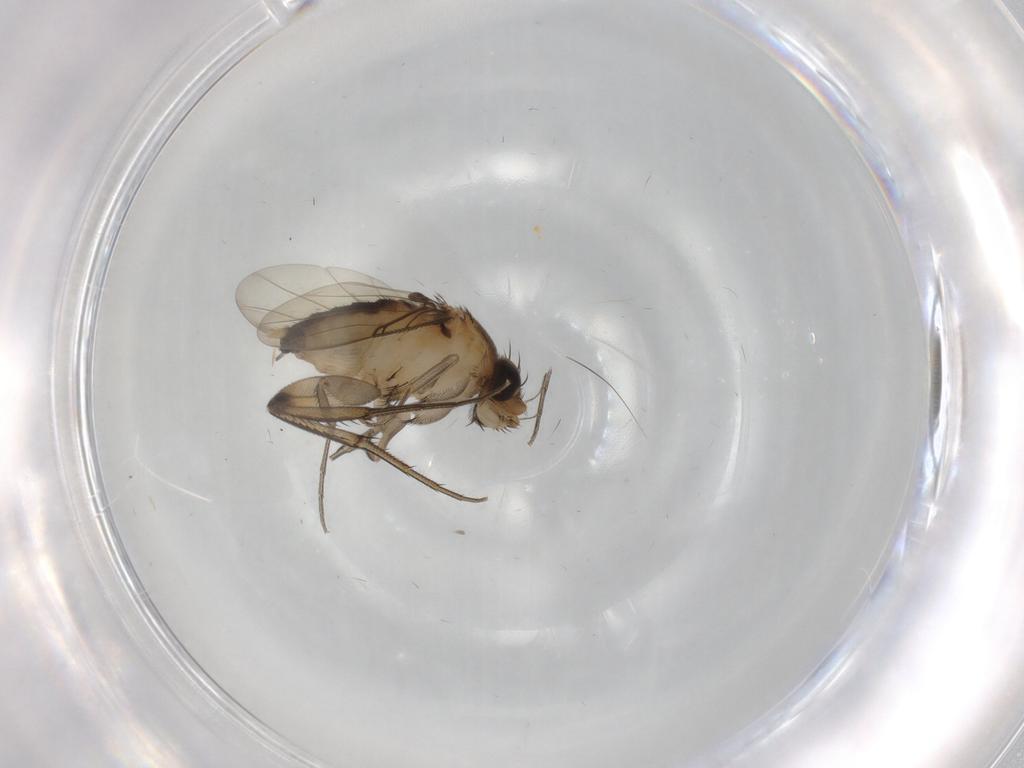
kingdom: Animalia
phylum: Arthropoda
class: Insecta
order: Diptera
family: Phoridae
